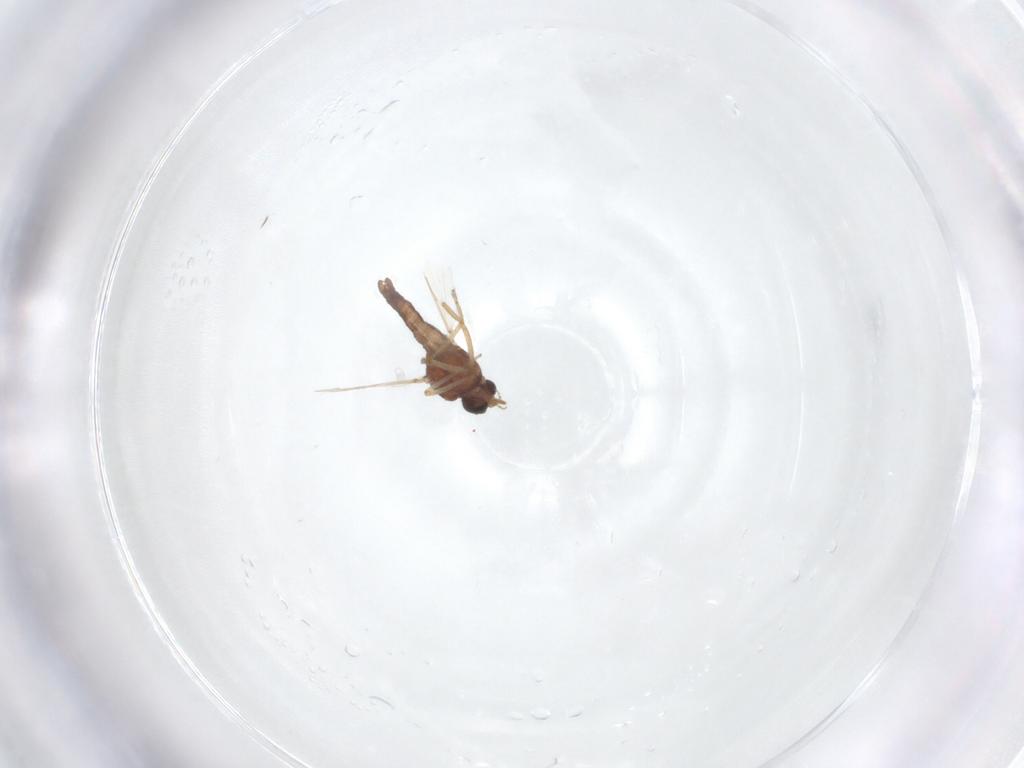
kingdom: Animalia
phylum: Arthropoda
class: Insecta
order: Diptera
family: Ceratopogonidae
